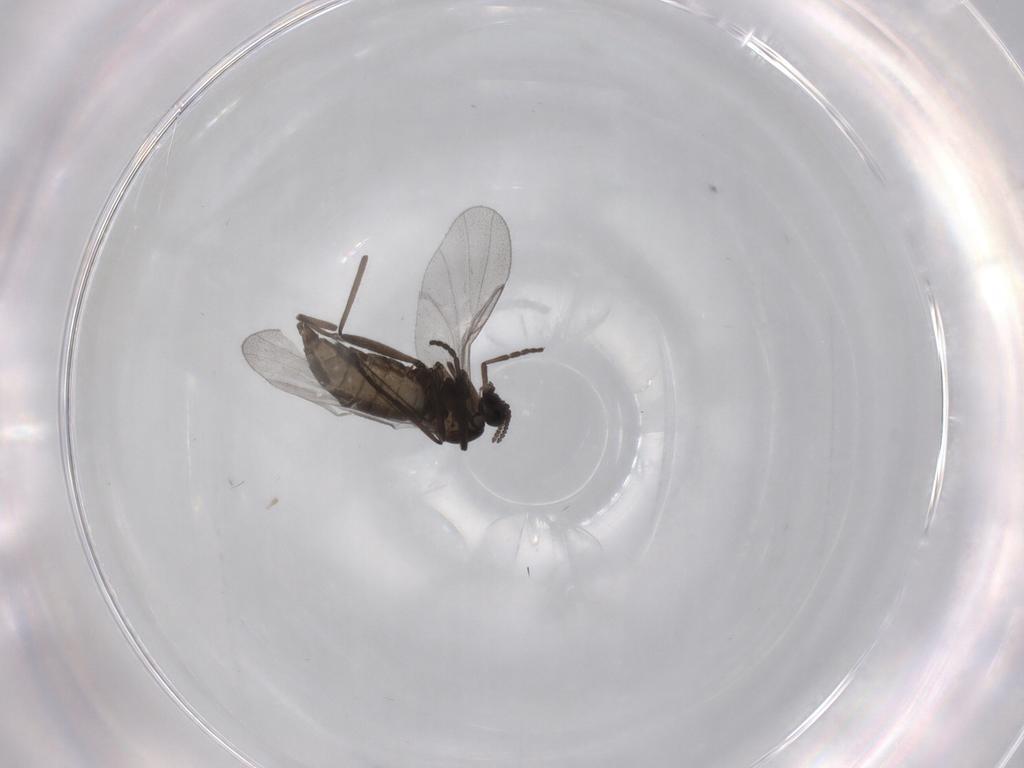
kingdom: Animalia
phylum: Arthropoda
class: Insecta
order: Diptera
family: Cecidomyiidae
